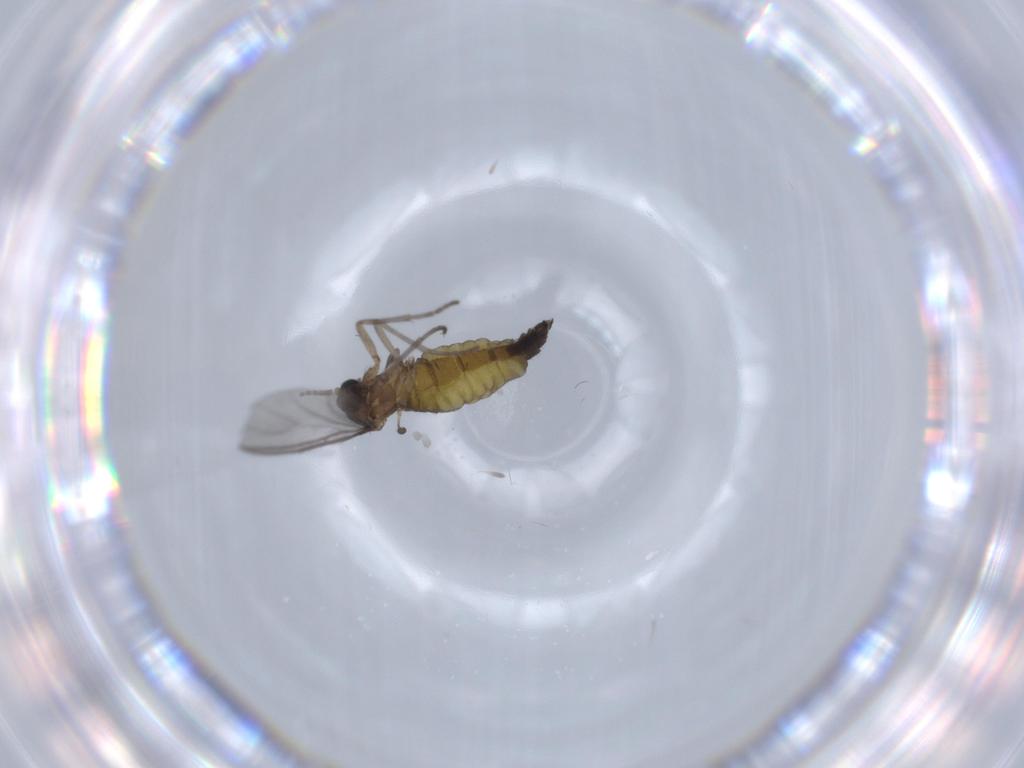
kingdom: Animalia
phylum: Arthropoda
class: Insecta
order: Diptera
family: Sciaridae
